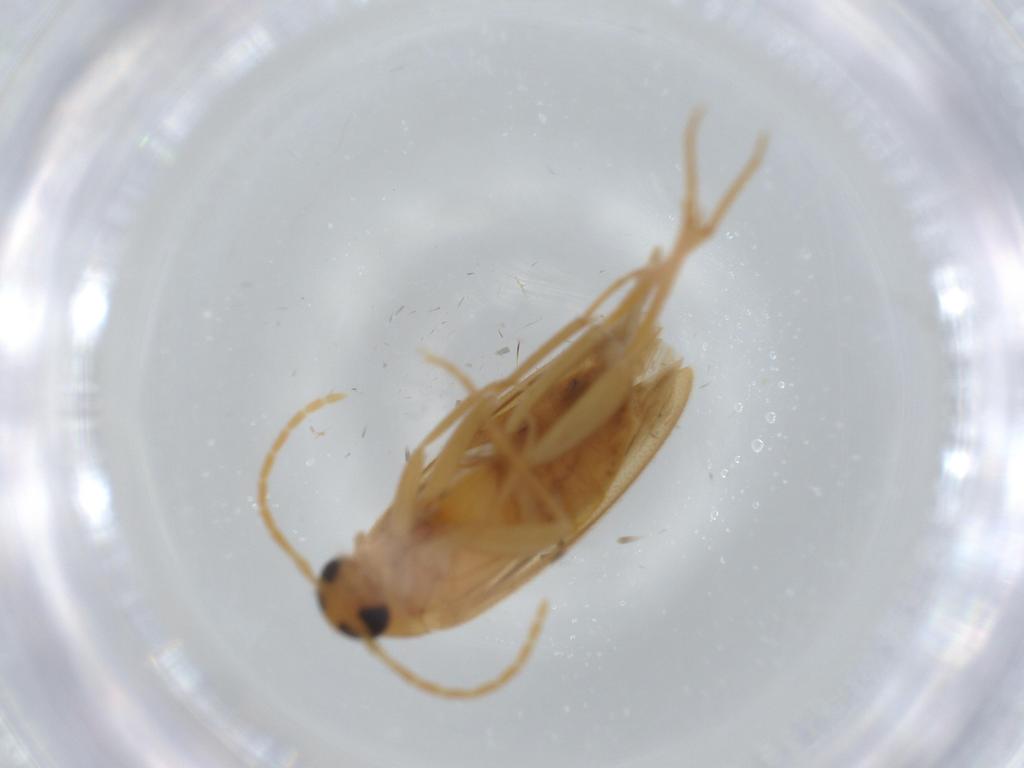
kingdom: Animalia
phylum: Arthropoda
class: Insecta
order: Coleoptera
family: Scraptiidae
